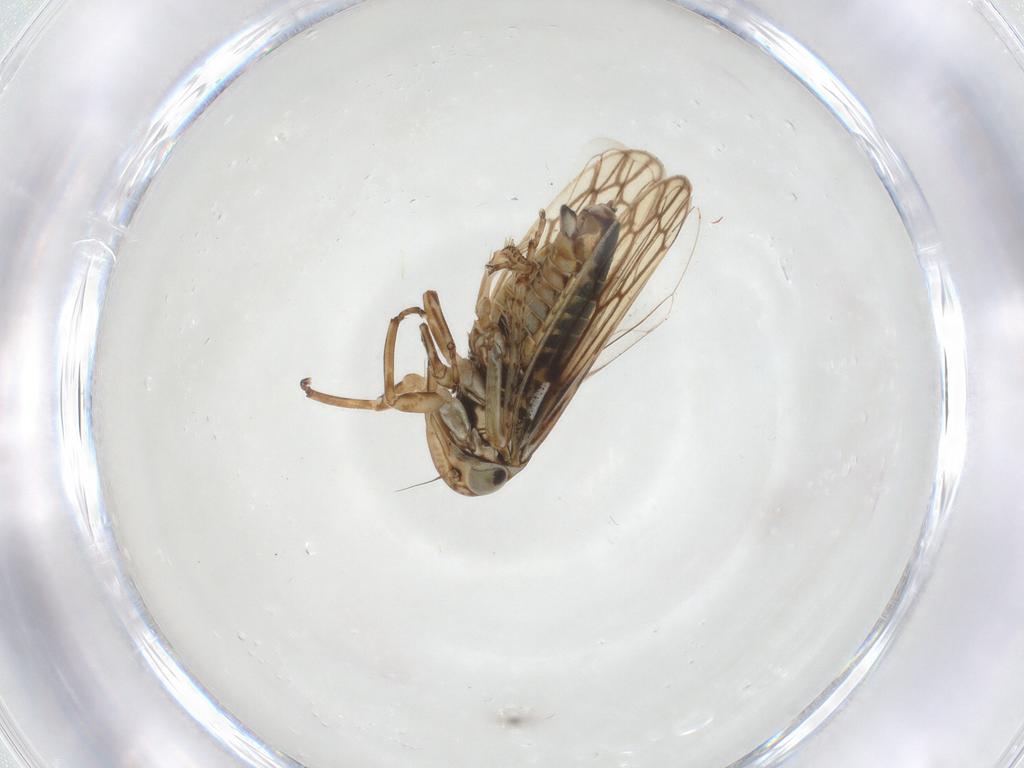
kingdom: Animalia
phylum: Arthropoda
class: Insecta
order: Hemiptera
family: Cicadellidae
